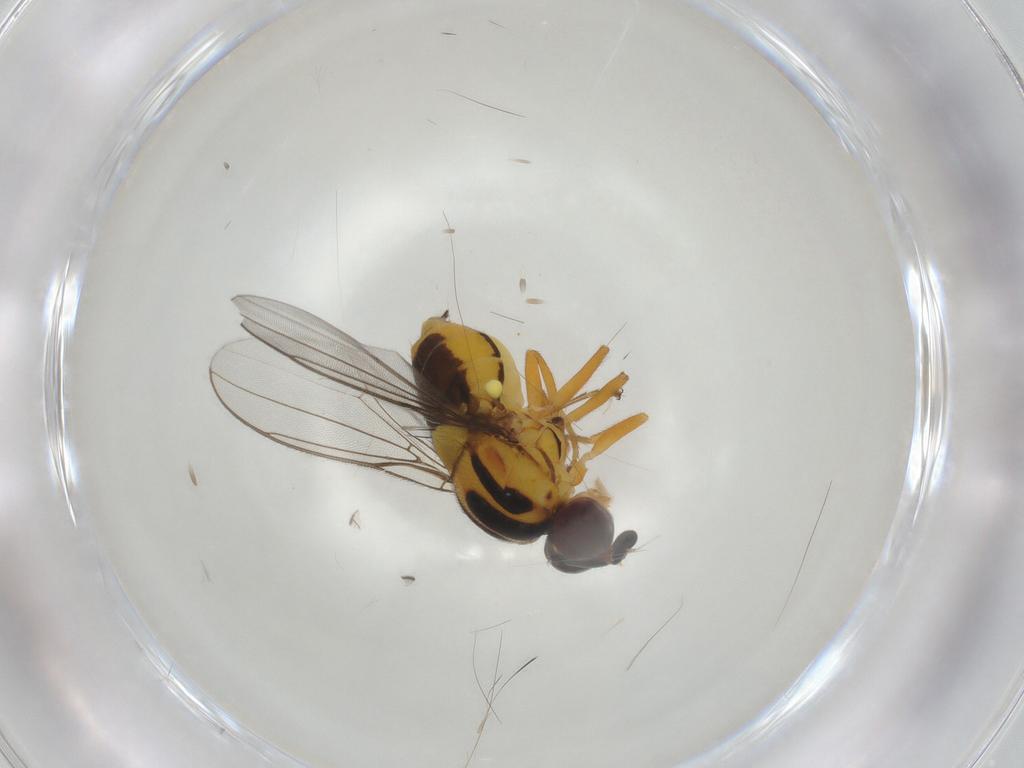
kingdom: Animalia
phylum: Arthropoda
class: Insecta
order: Diptera
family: Chloropidae
